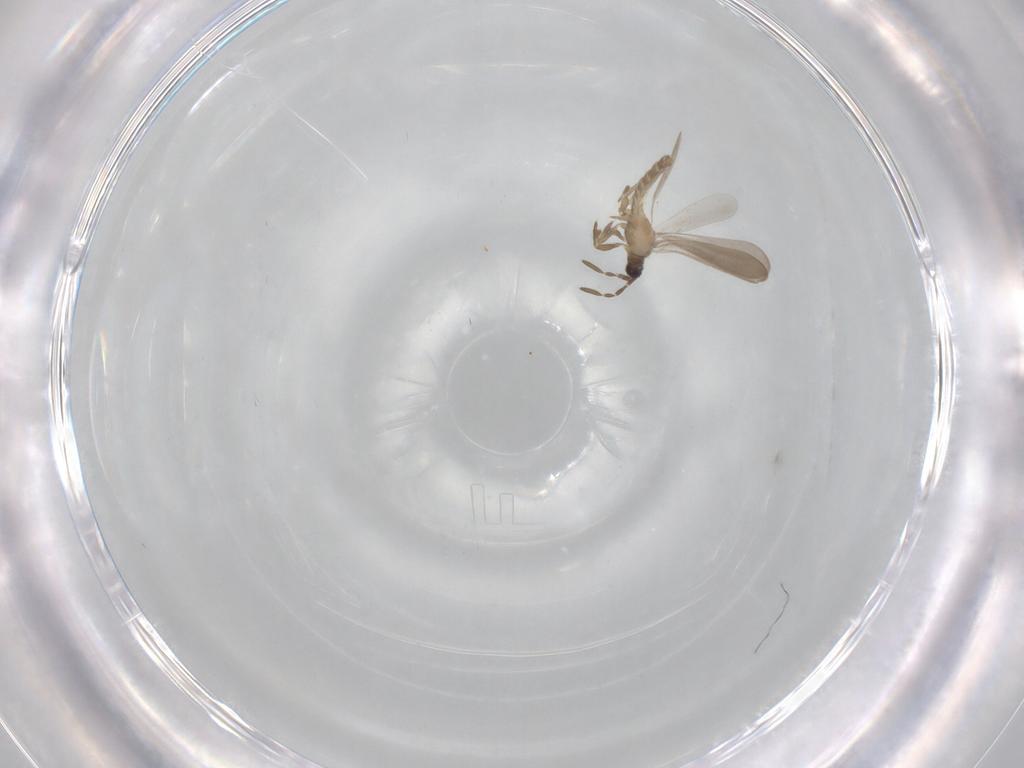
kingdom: Animalia
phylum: Arthropoda
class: Insecta
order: Hemiptera
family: Enicocephalidae
